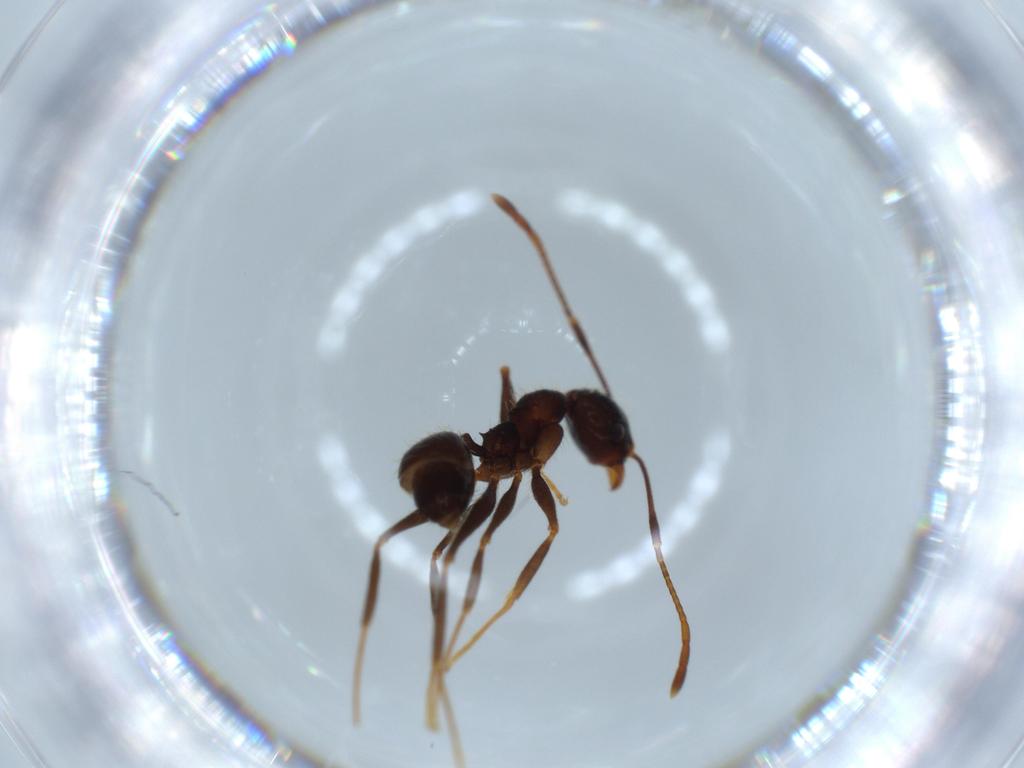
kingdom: Animalia
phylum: Arthropoda
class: Insecta
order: Hymenoptera
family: Formicidae
